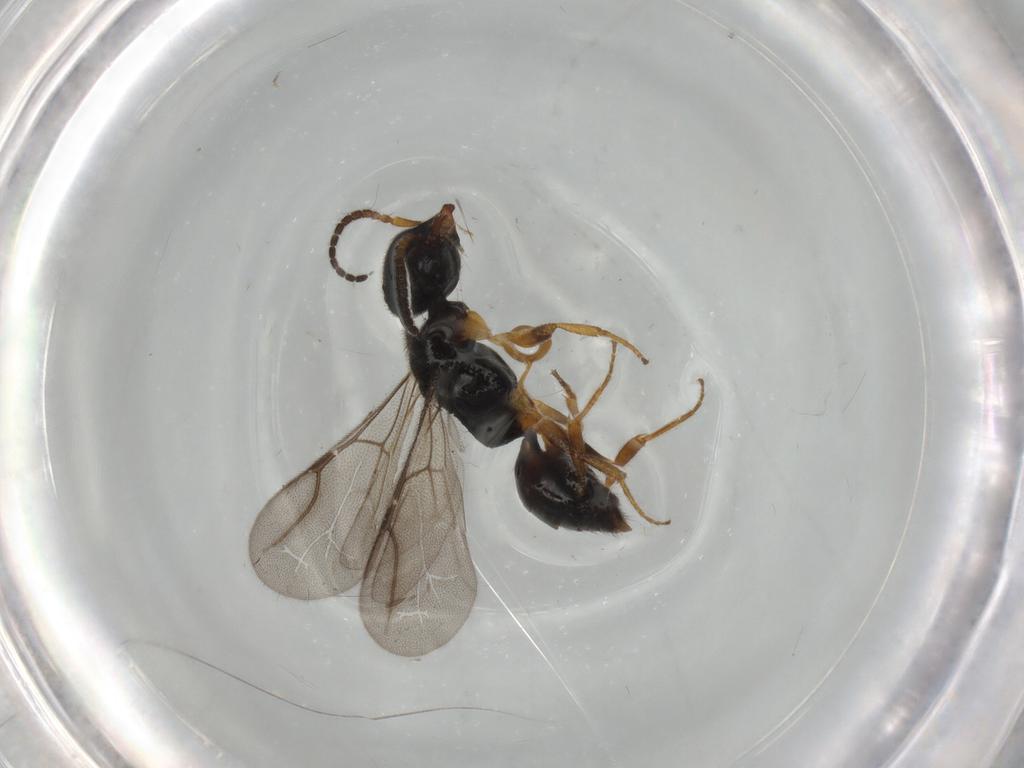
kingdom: Animalia
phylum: Arthropoda
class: Insecta
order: Hymenoptera
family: Bethylidae
